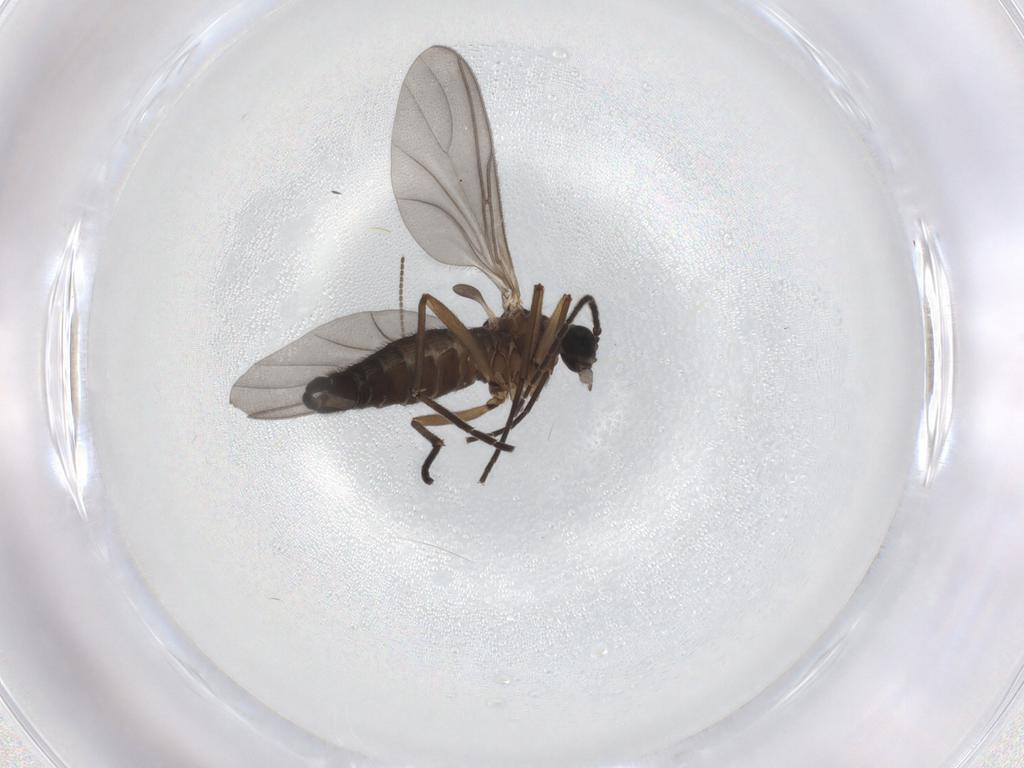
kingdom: Animalia
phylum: Arthropoda
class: Insecta
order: Diptera
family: Sciaridae
